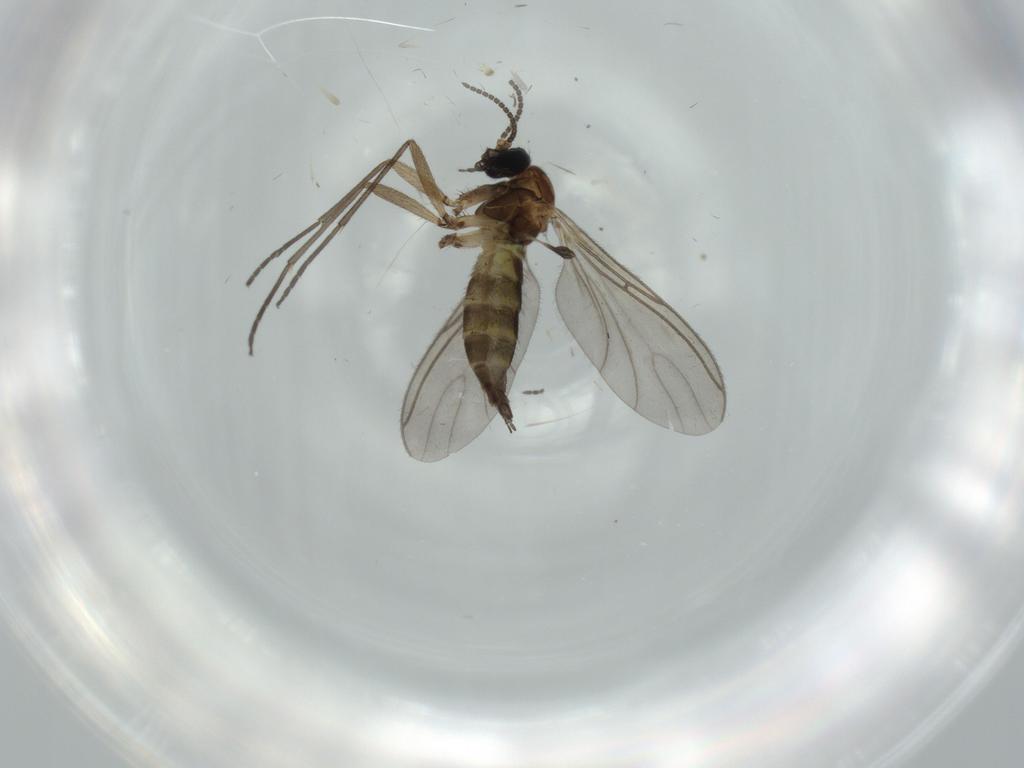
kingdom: Animalia
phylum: Arthropoda
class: Insecta
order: Diptera
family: Sciaridae
